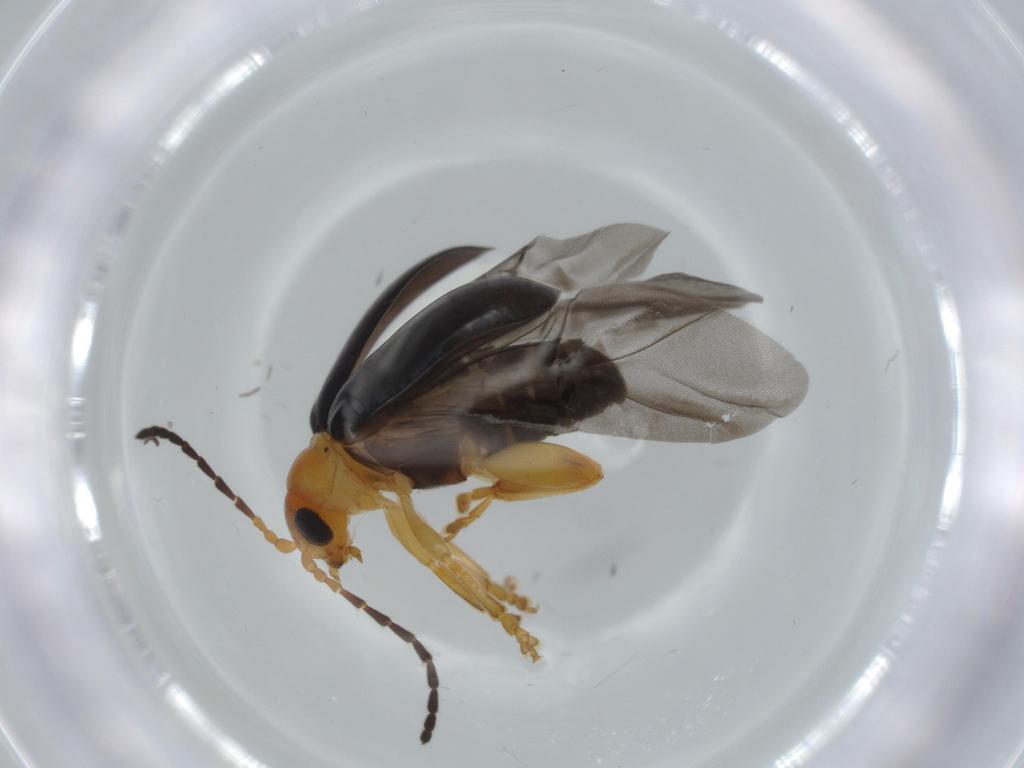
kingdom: Animalia
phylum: Arthropoda
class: Insecta
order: Coleoptera
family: Chrysomelidae
